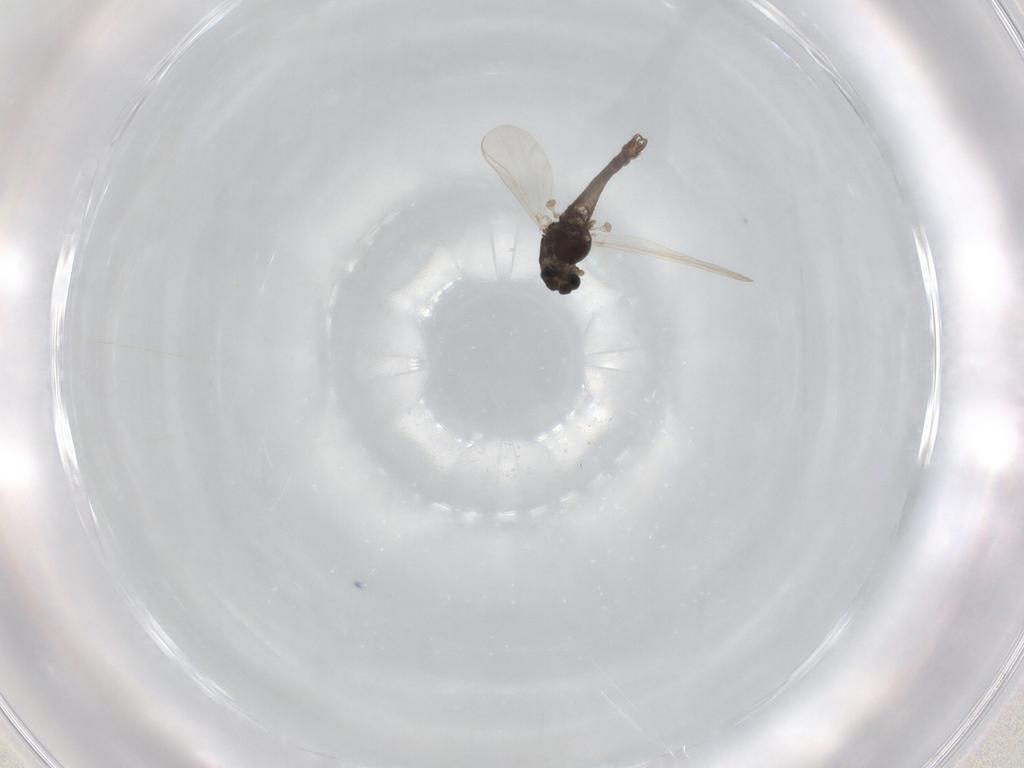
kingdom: Animalia
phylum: Arthropoda
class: Insecta
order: Diptera
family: Chironomidae
